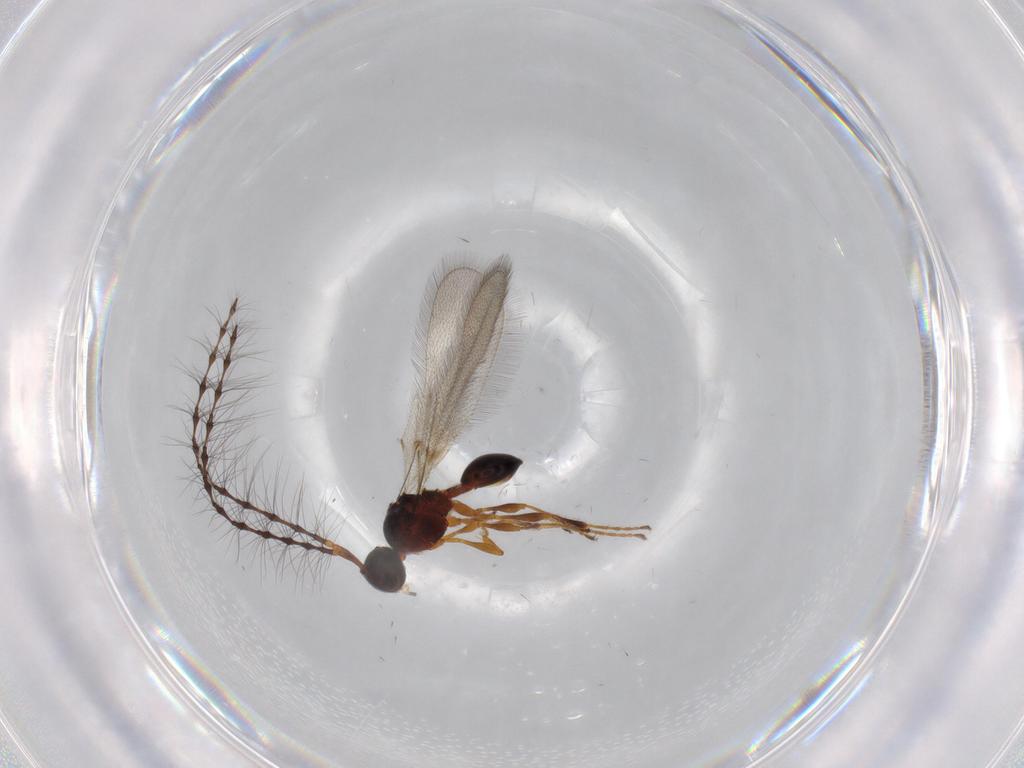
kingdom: Animalia
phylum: Arthropoda
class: Insecta
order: Hymenoptera
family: Diapriidae
